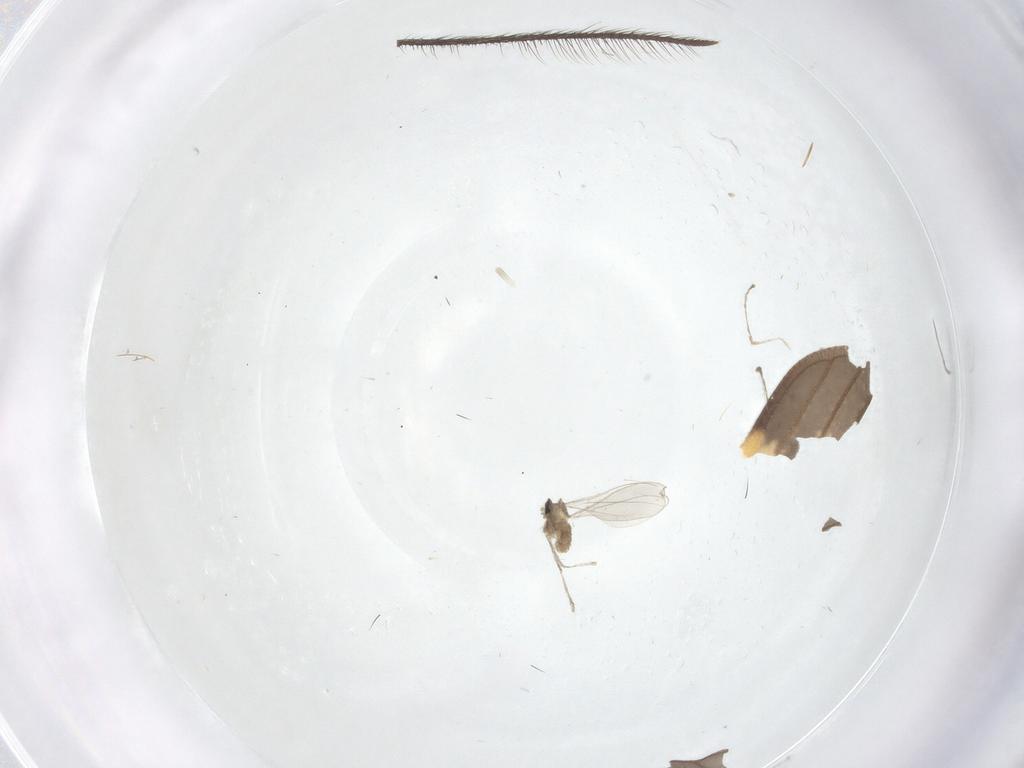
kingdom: Animalia
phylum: Arthropoda
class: Insecta
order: Diptera
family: Cecidomyiidae
